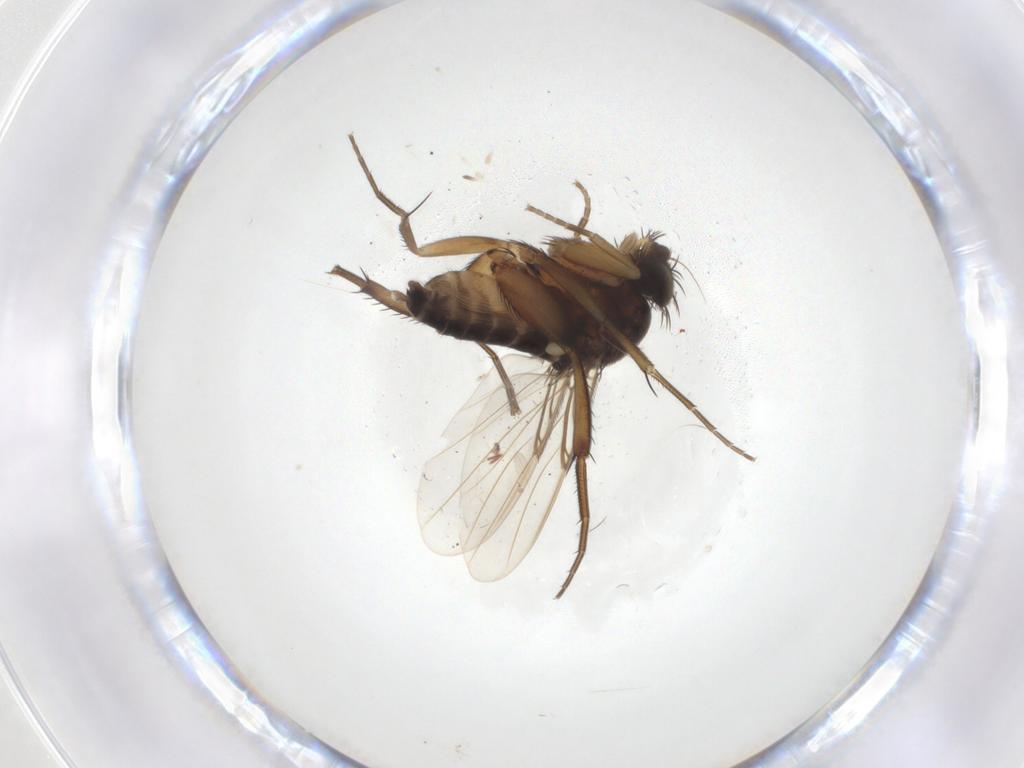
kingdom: Animalia
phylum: Arthropoda
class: Insecta
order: Diptera
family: Phoridae
